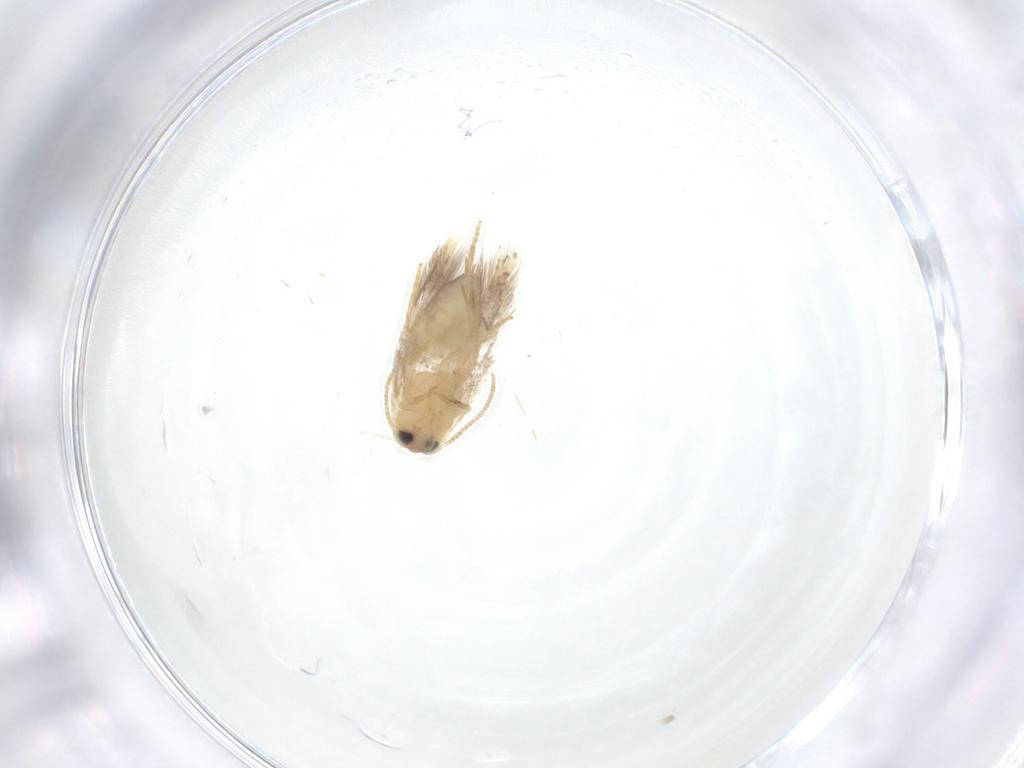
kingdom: Animalia
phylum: Arthropoda
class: Insecta
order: Lepidoptera
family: Nepticulidae
